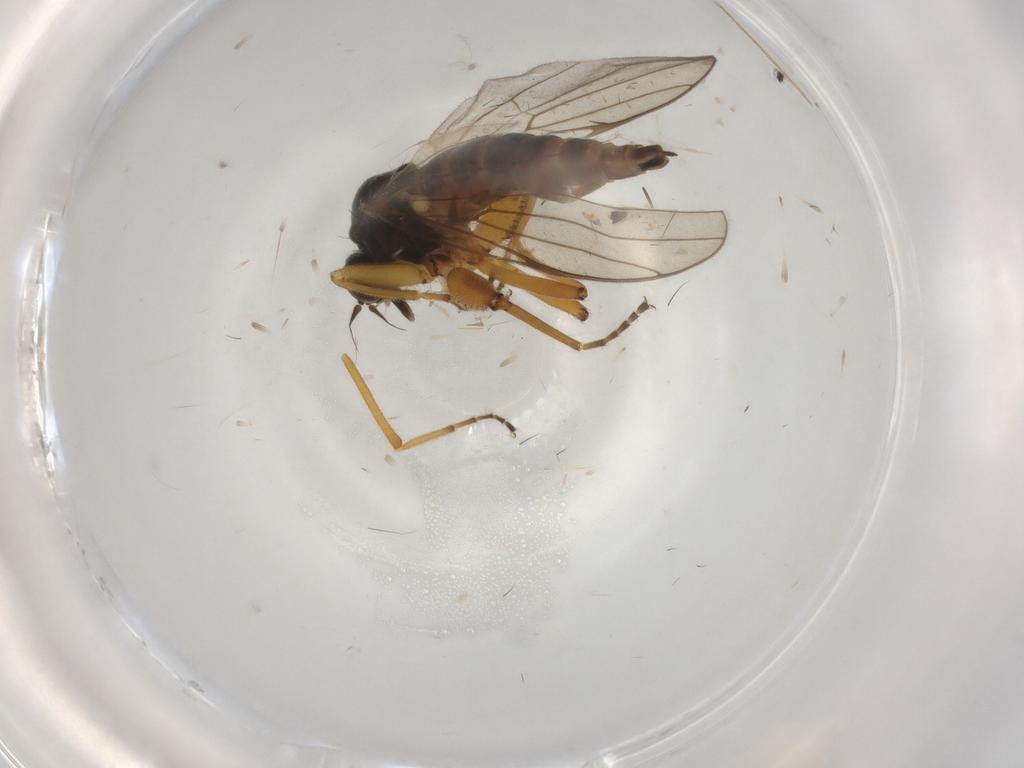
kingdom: Animalia
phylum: Arthropoda
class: Insecta
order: Diptera
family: Hybotidae
